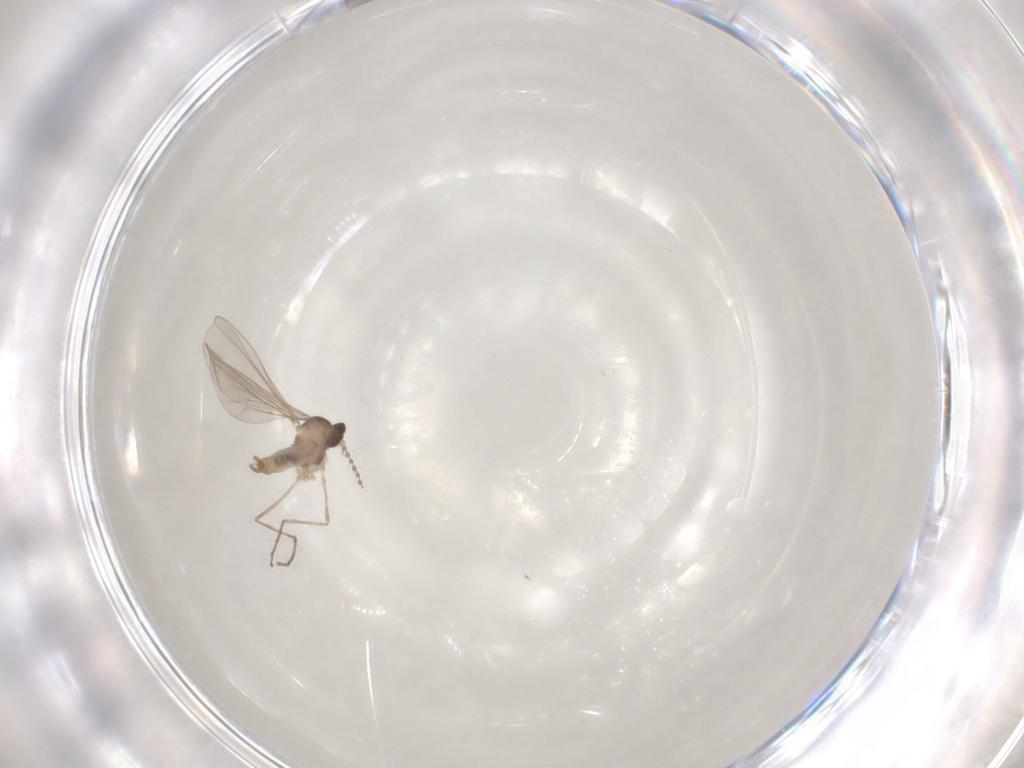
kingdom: Animalia
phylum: Arthropoda
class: Insecta
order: Diptera
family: Cecidomyiidae
